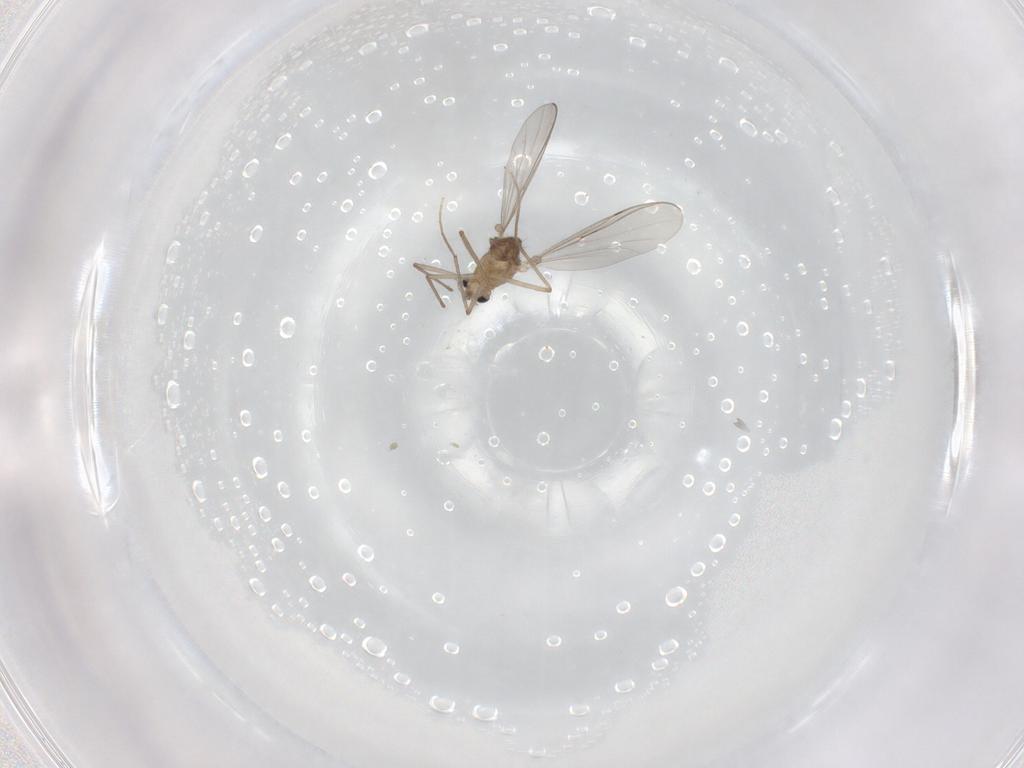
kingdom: Animalia
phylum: Arthropoda
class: Insecta
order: Diptera
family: Chironomidae
